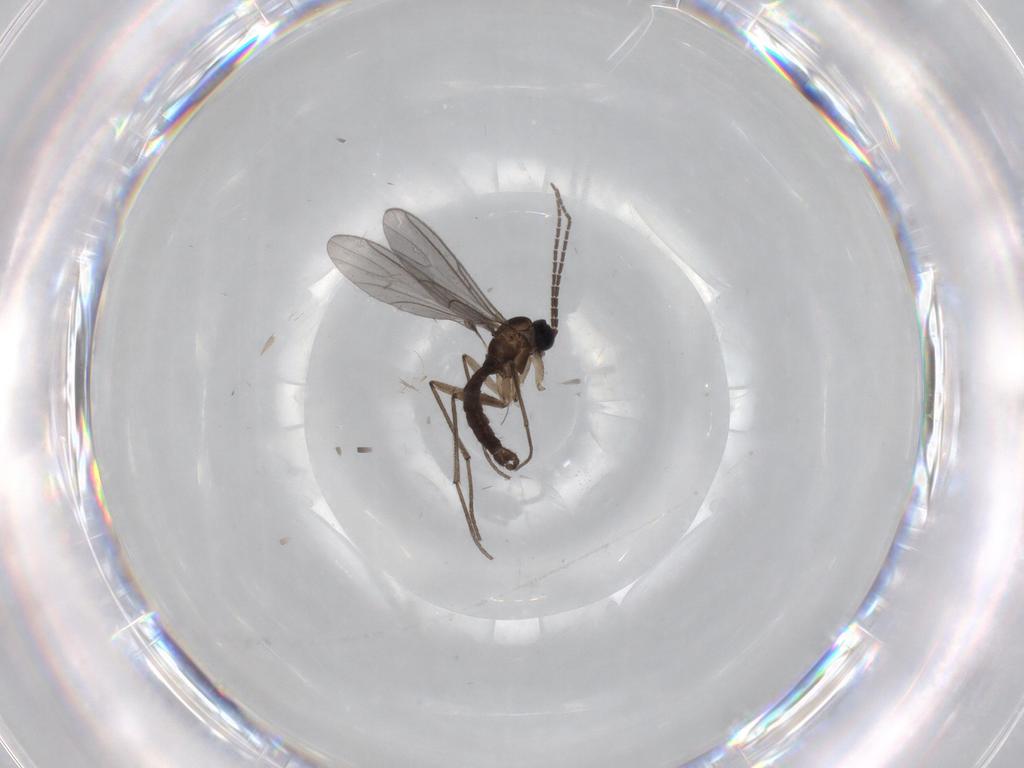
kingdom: Animalia
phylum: Arthropoda
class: Insecta
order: Diptera
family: Sciaridae
